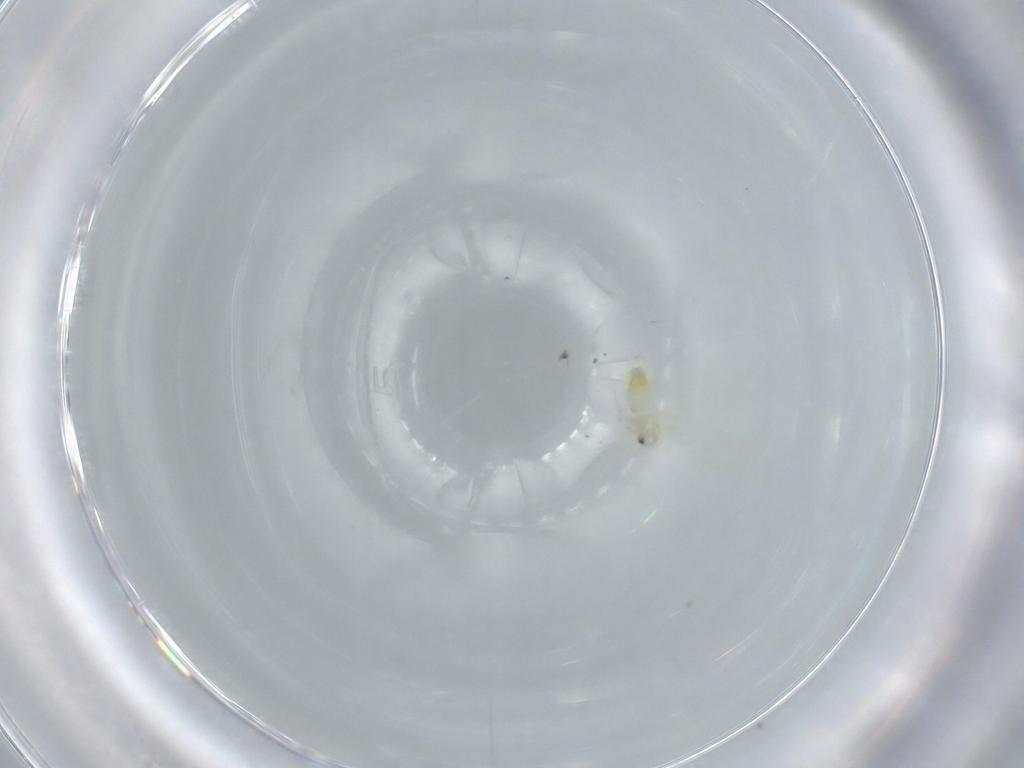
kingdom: Animalia
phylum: Arthropoda
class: Insecta
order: Hemiptera
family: Aleyrodidae
